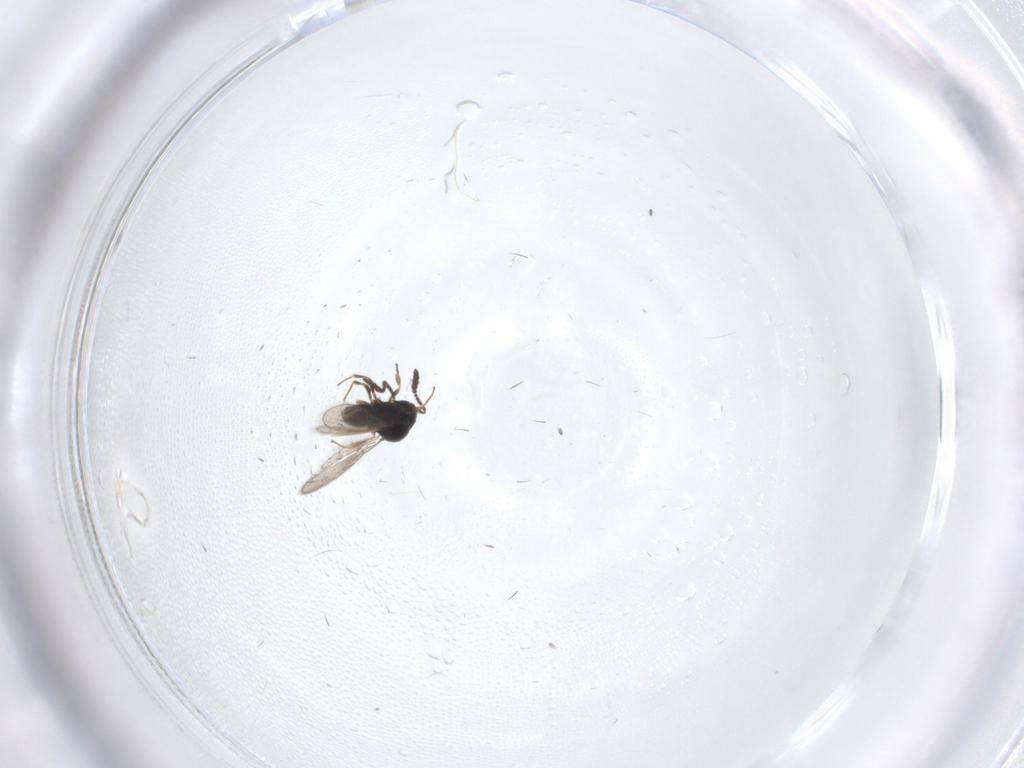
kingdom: Animalia
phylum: Arthropoda
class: Insecta
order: Hymenoptera
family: Scelionidae
